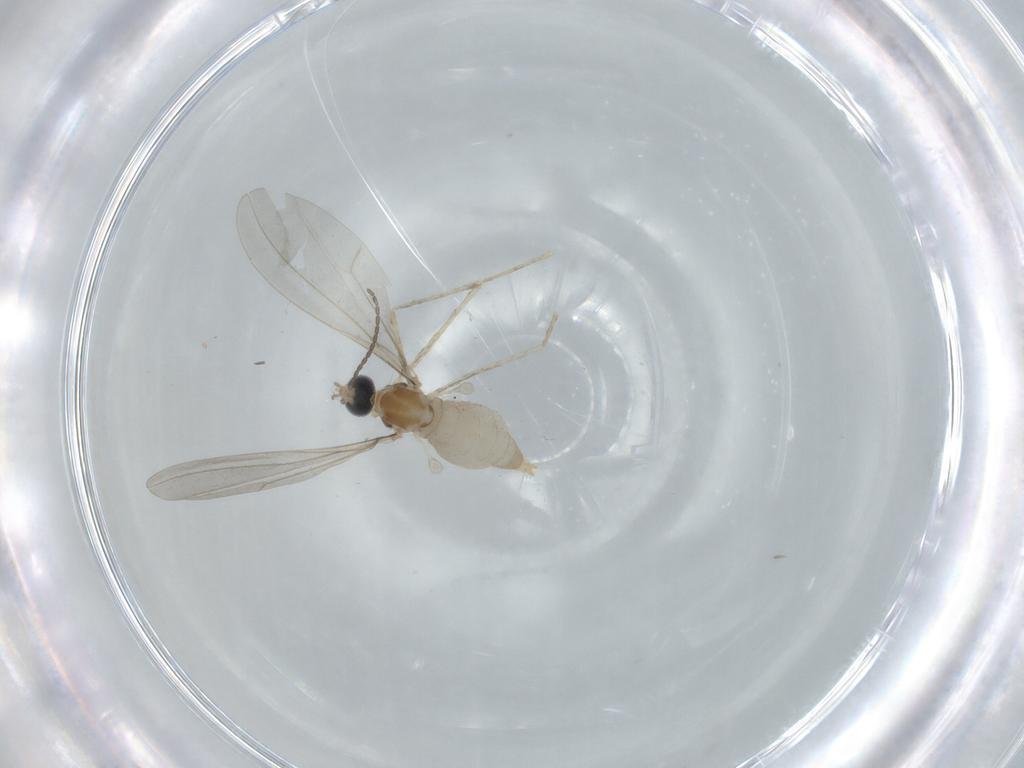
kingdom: Animalia
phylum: Arthropoda
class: Insecta
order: Diptera
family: Cecidomyiidae
